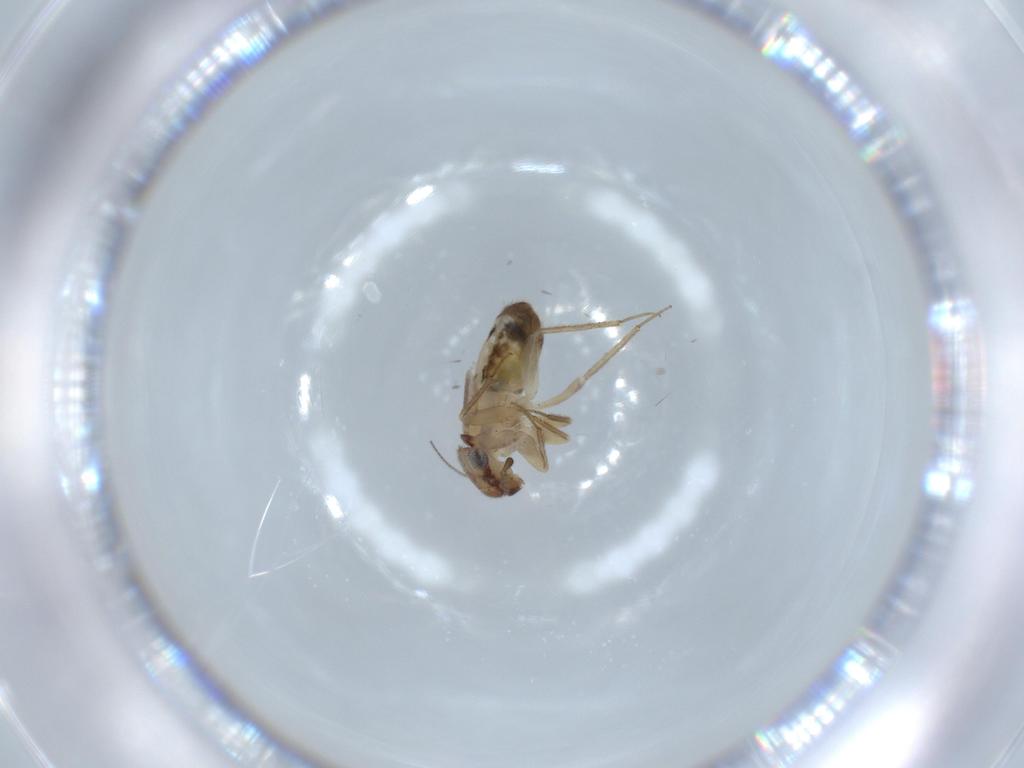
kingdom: Animalia
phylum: Arthropoda
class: Insecta
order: Psocodea
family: Lepidopsocidae
